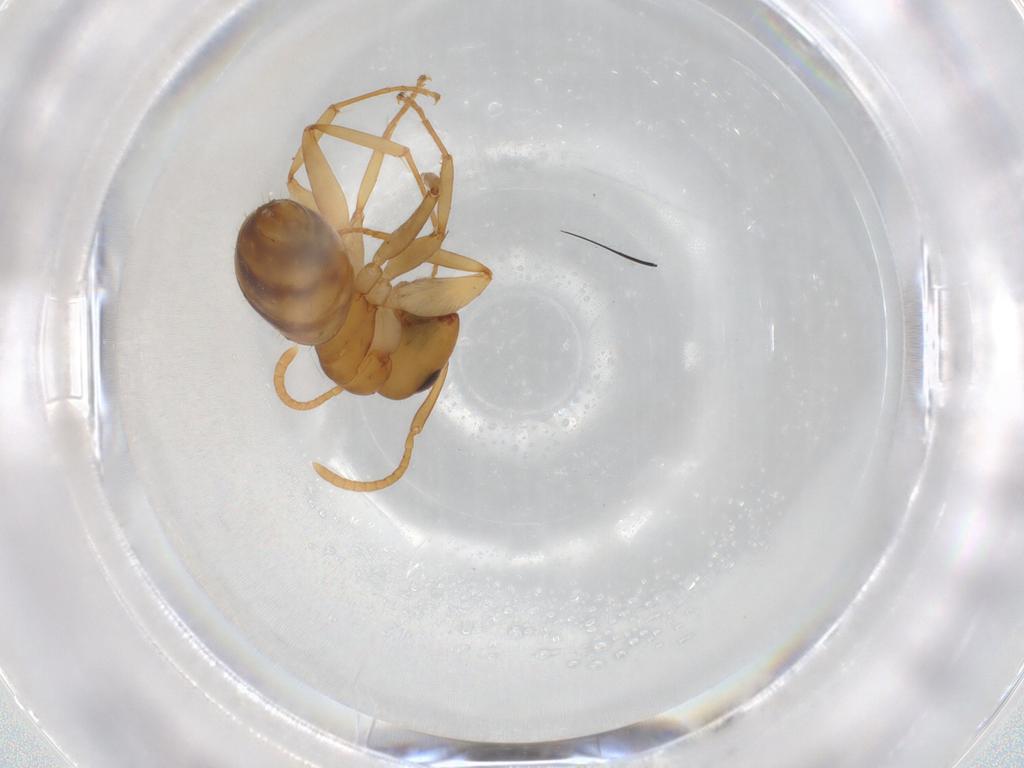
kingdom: Animalia
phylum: Arthropoda
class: Insecta
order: Hymenoptera
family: Formicidae
